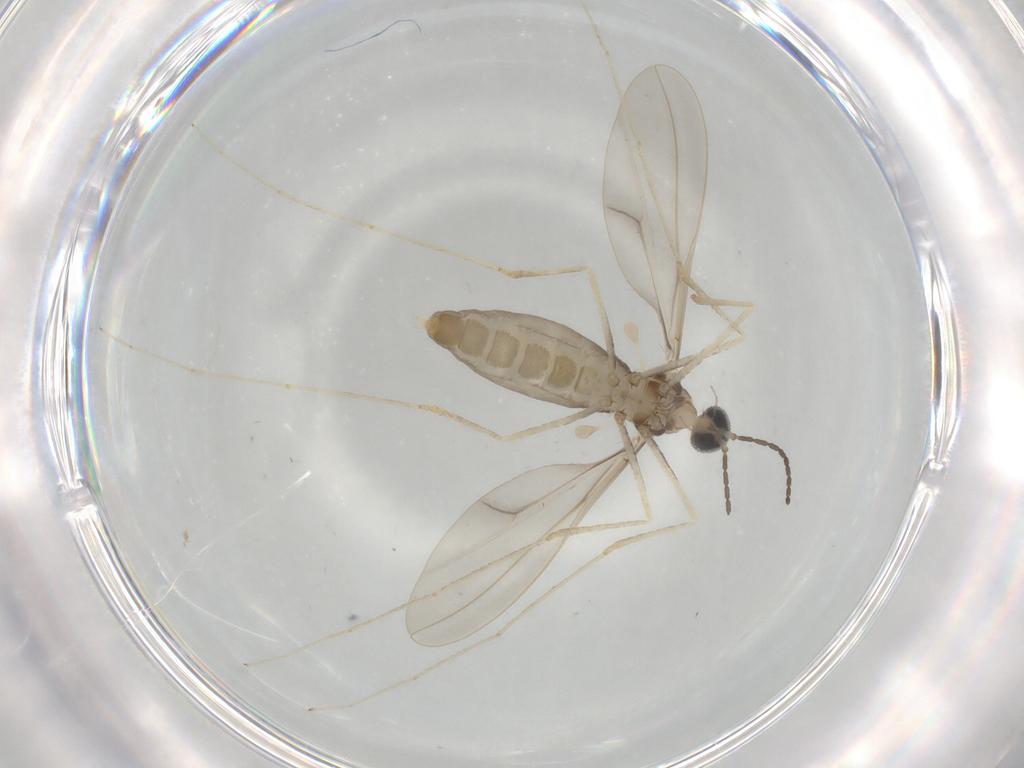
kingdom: Animalia
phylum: Arthropoda
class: Insecta
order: Diptera
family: Cecidomyiidae
